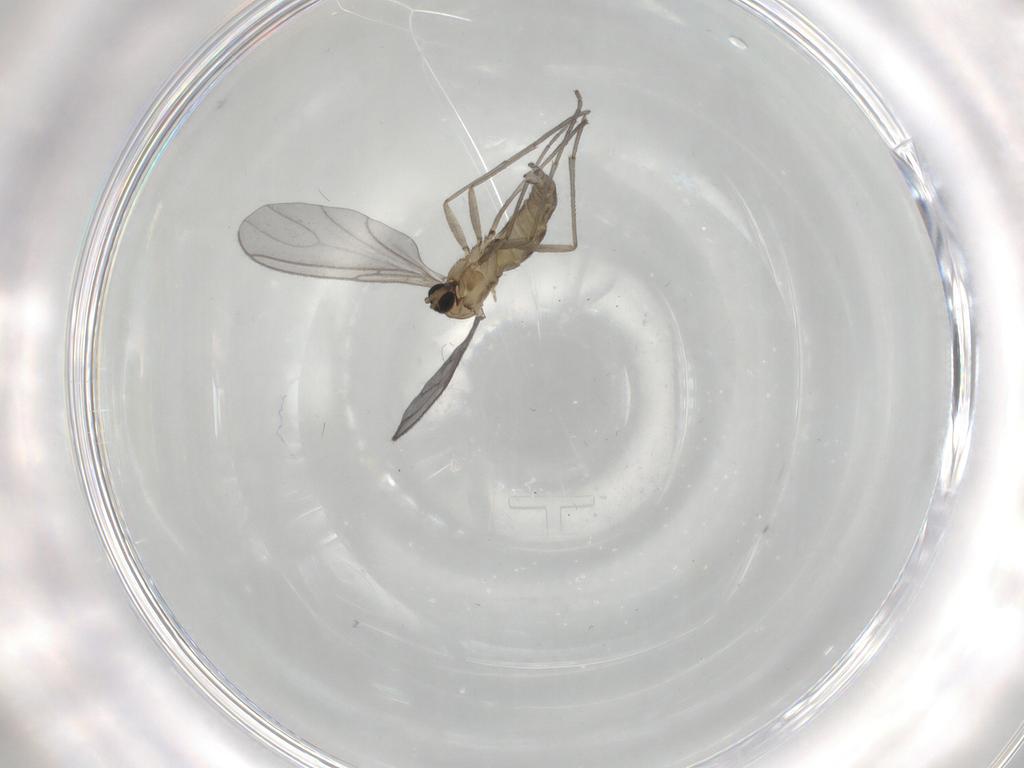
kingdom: Animalia
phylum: Arthropoda
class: Insecta
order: Diptera
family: Sciaridae
